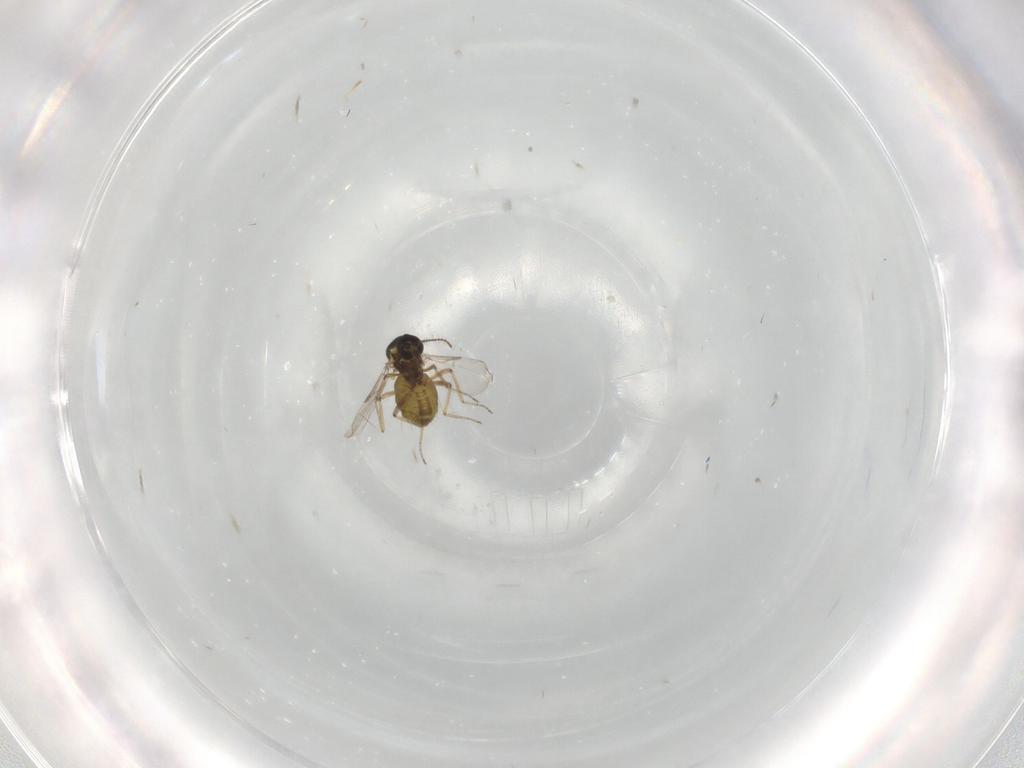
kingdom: Animalia
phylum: Arthropoda
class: Insecta
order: Diptera
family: Ceratopogonidae
